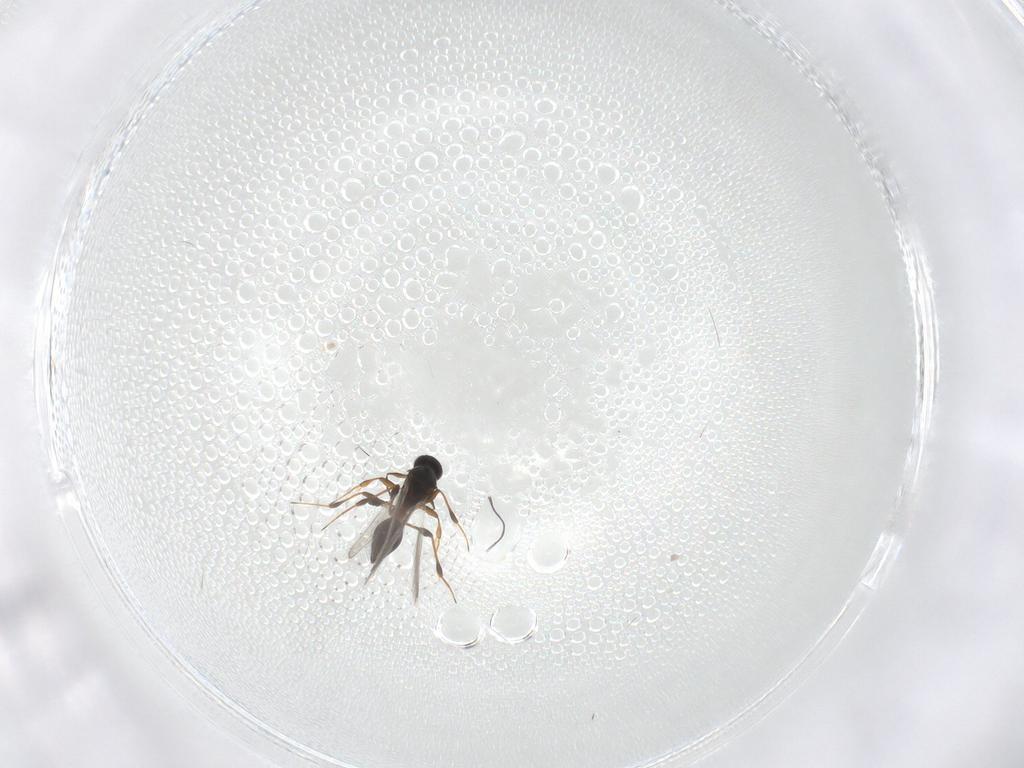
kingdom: Animalia
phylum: Arthropoda
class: Insecta
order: Hymenoptera
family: Platygastridae
